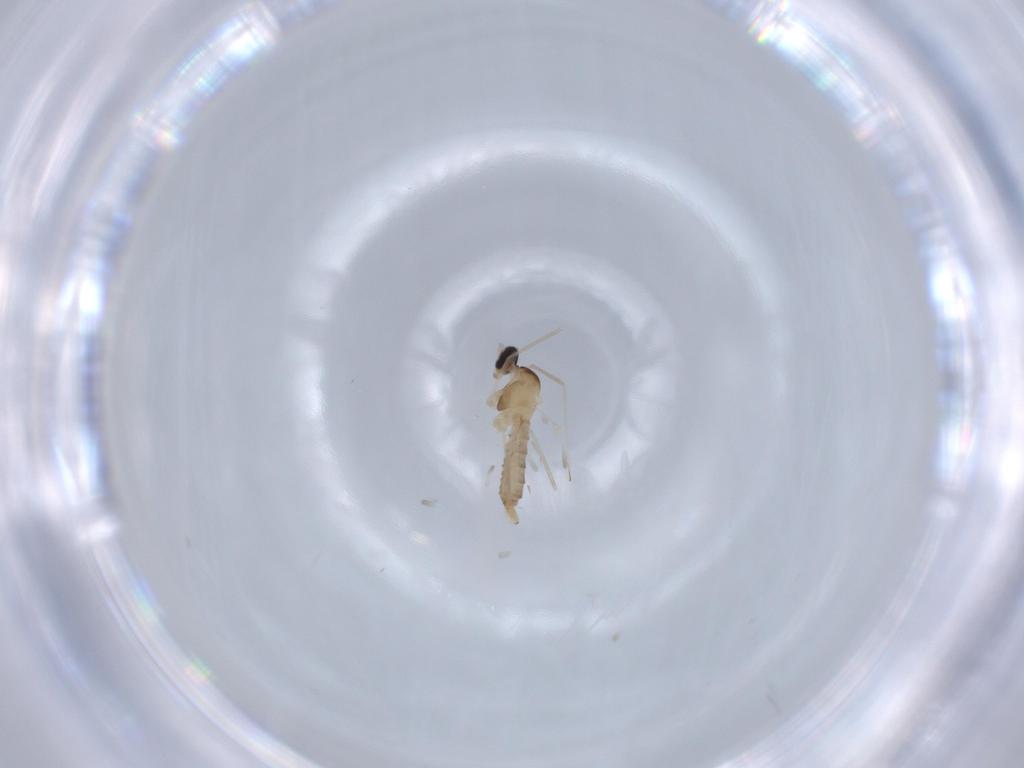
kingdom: Animalia
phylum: Arthropoda
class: Insecta
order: Diptera
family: Cecidomyiidae
